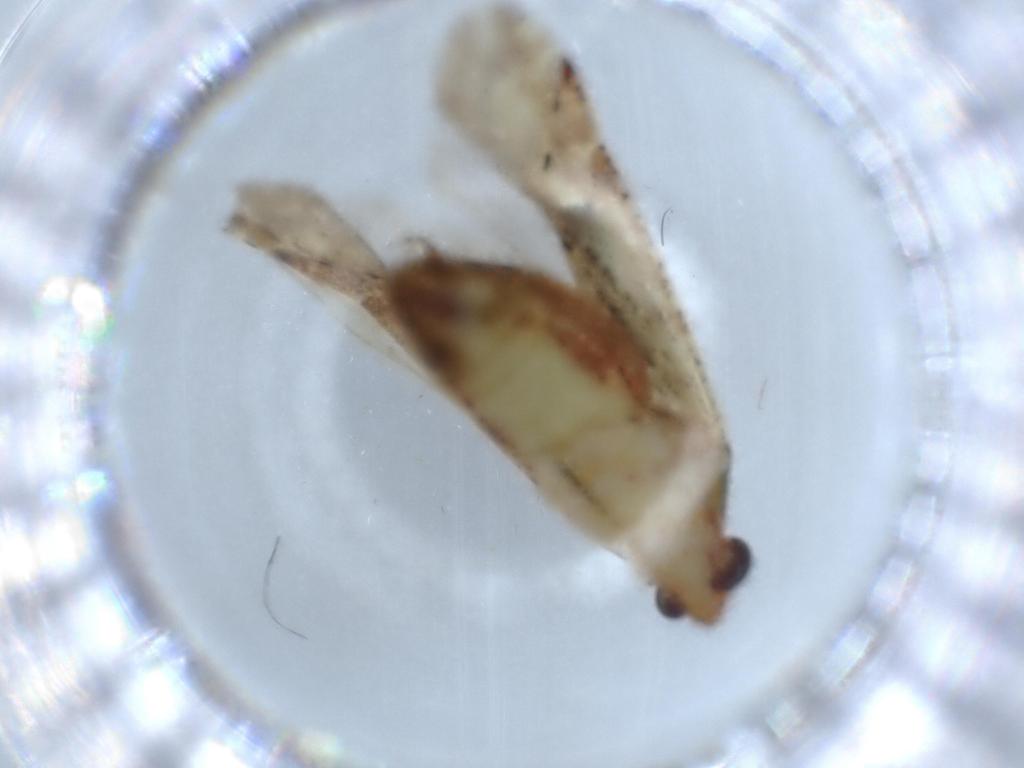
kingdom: Animalia
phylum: Arthropoda
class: Insecta
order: Hemiptera
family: Miridae
